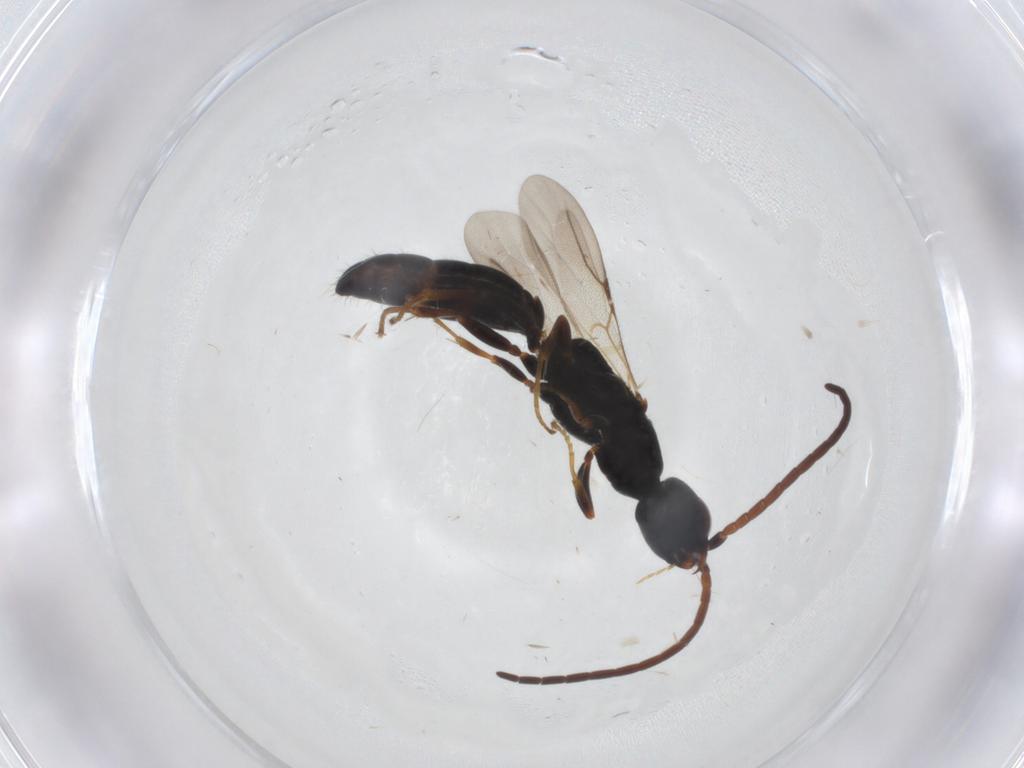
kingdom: Animalia
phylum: Arthropoda
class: Insecta
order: Hymenoptera
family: Bethylidae
